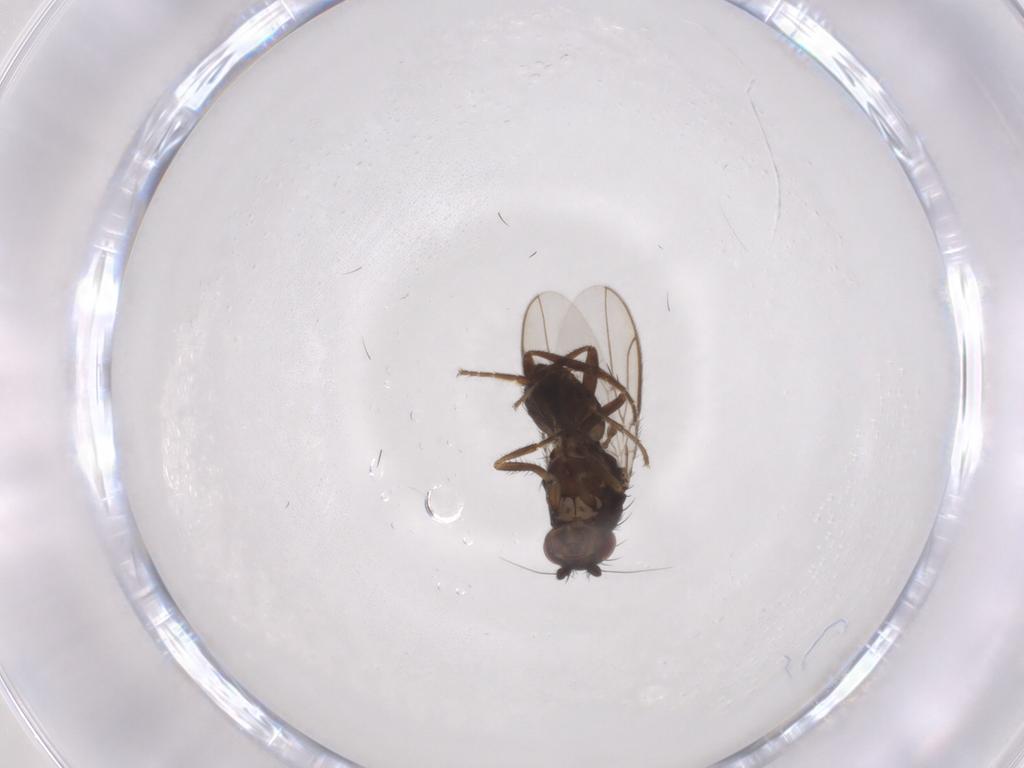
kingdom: Animalia
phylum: Arthropoda
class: Insecta
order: Diptera
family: Sphaeroceridae
